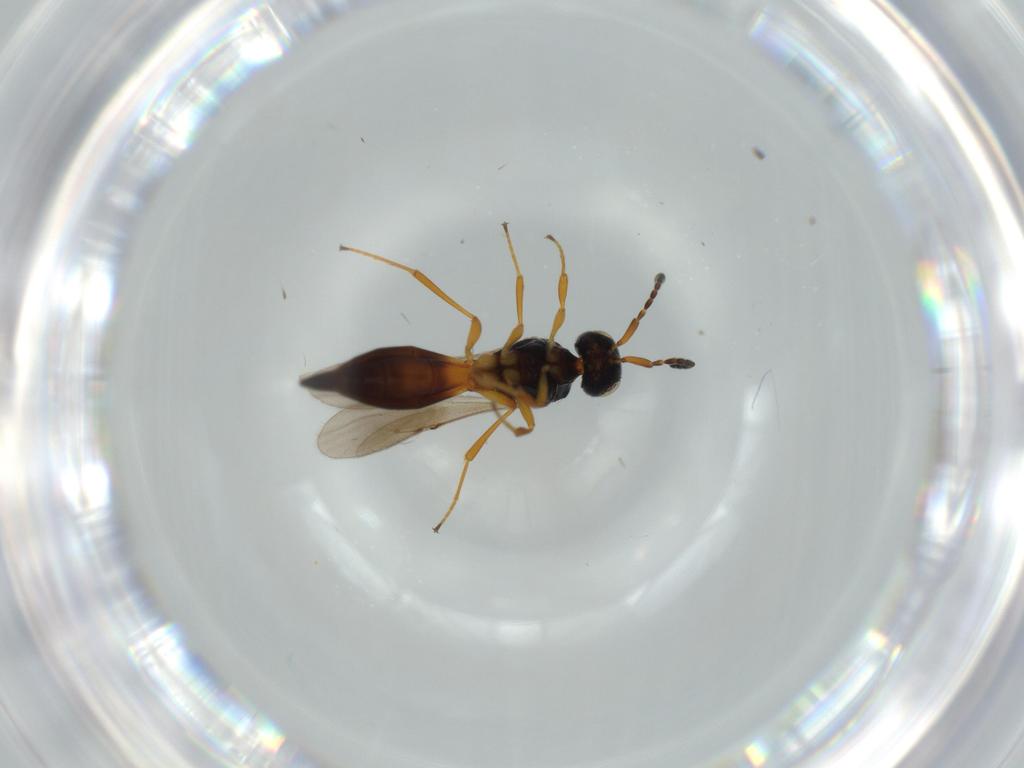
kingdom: Animalia
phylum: Arthropoda
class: Insecta
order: Hymenoptera
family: Scelionidae
